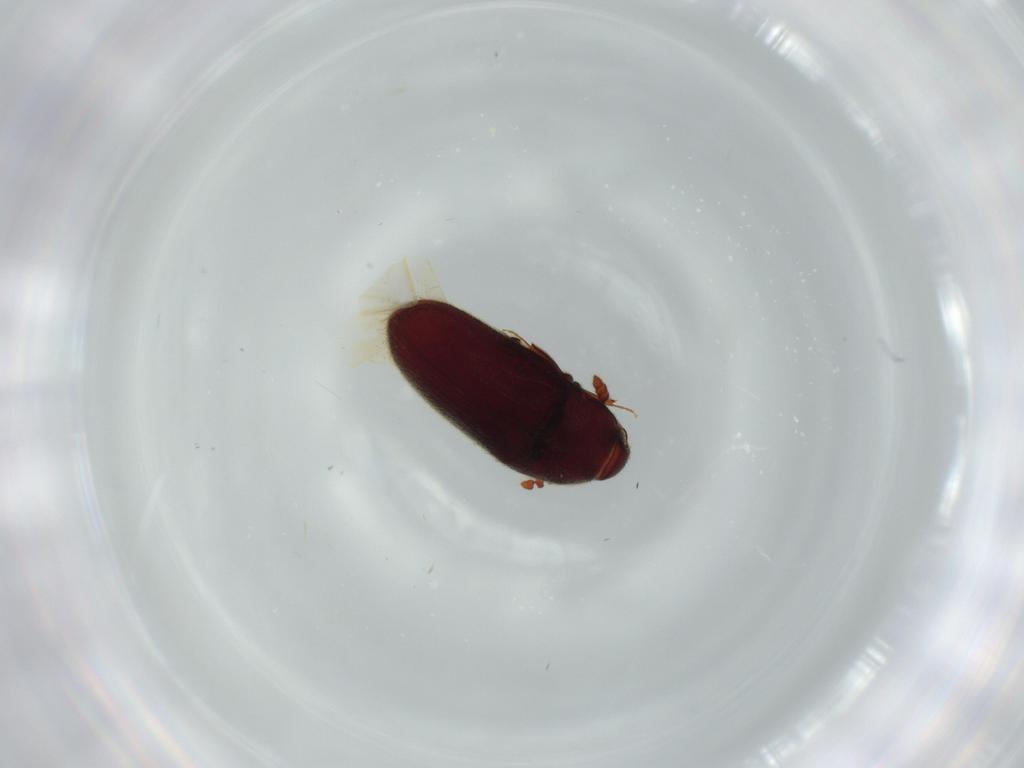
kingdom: Animalia
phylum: Arthropoda
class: Insecta
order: Coleoptera
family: Throscidae
